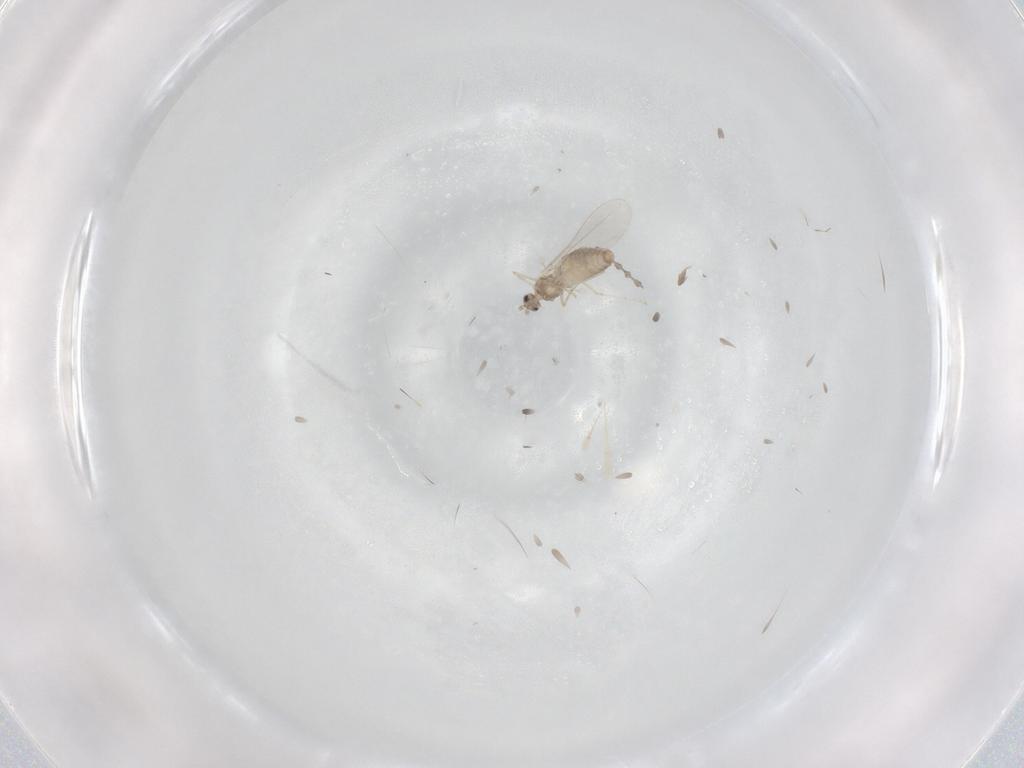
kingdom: Animalia
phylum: Arthropoda
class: Insecta
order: Diptera
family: Cecidomyiidae
